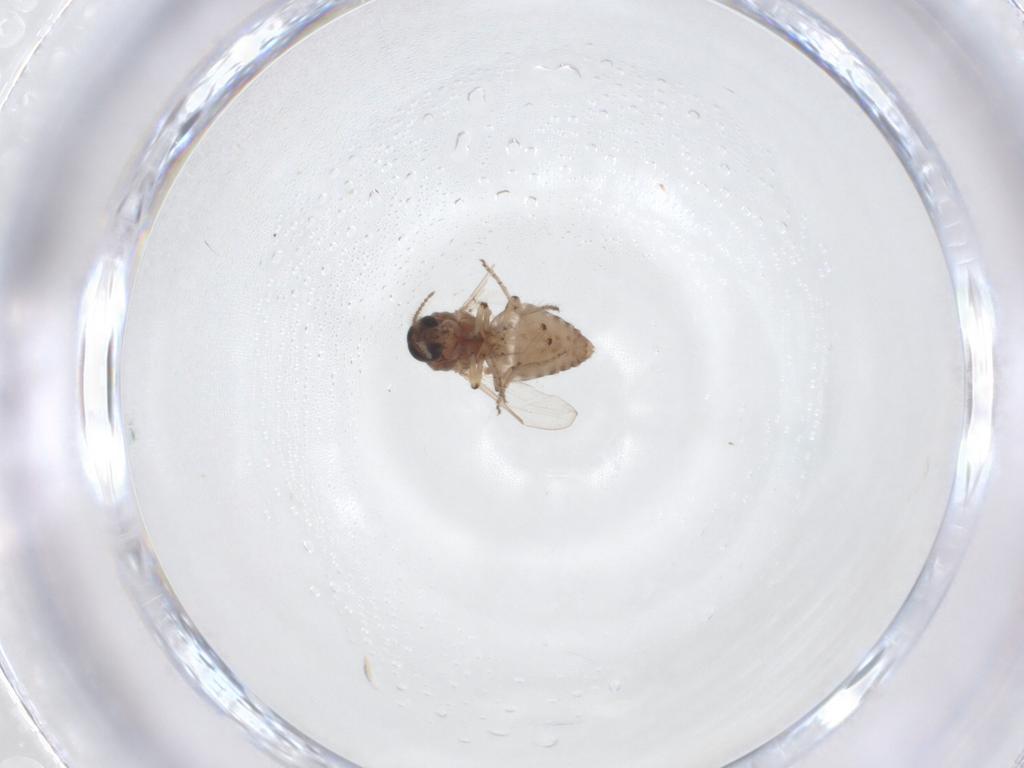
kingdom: Animalia
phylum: Arthropoda
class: Insecta
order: Diptera
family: Ceratopogonidae
